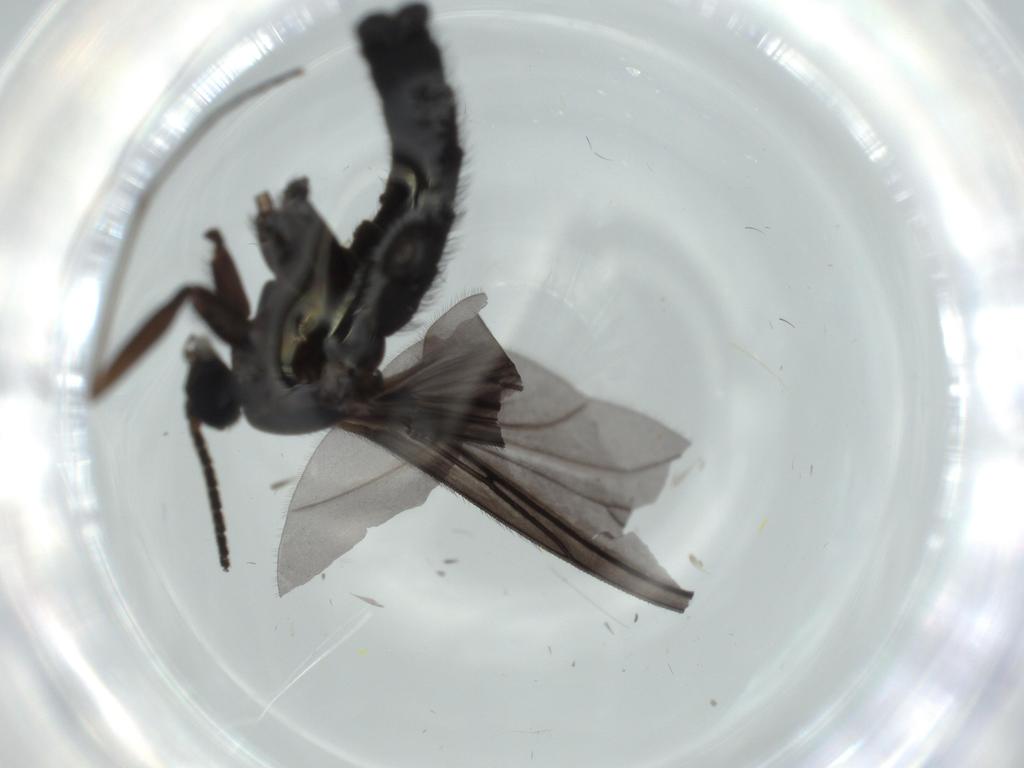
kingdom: Animalia
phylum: Arthropoda
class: Insecta
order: Diptera
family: Sciaridae
